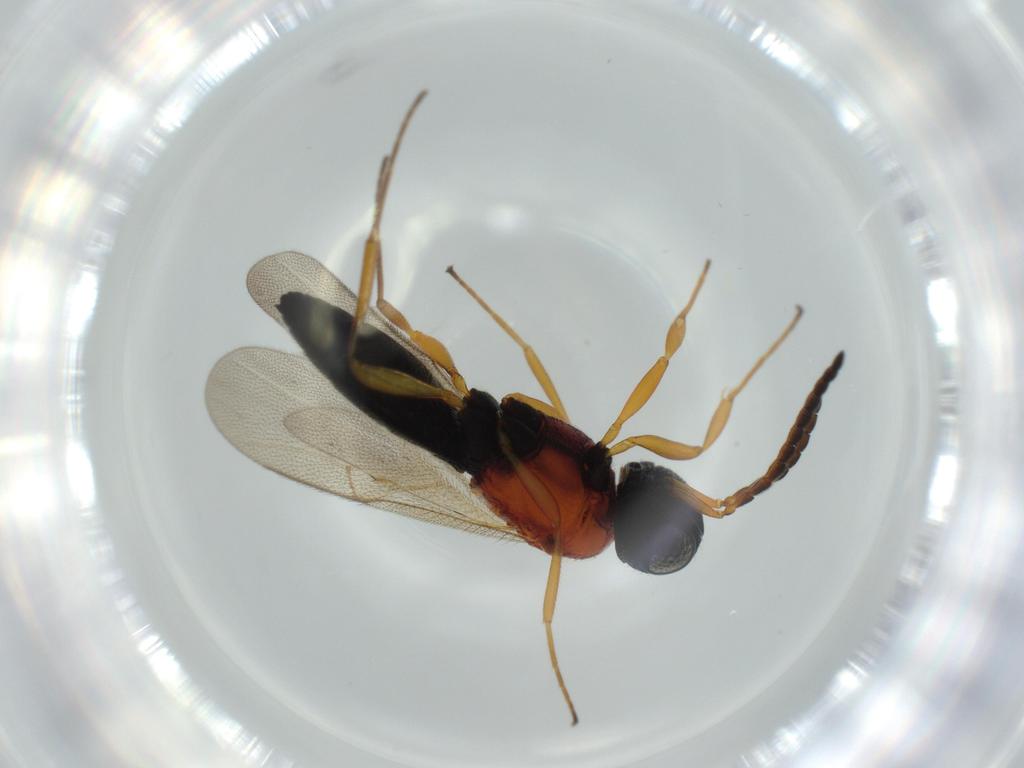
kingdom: Animalia
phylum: Arthropoda
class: Insecta
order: Hymenoptera
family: Scelionidae
